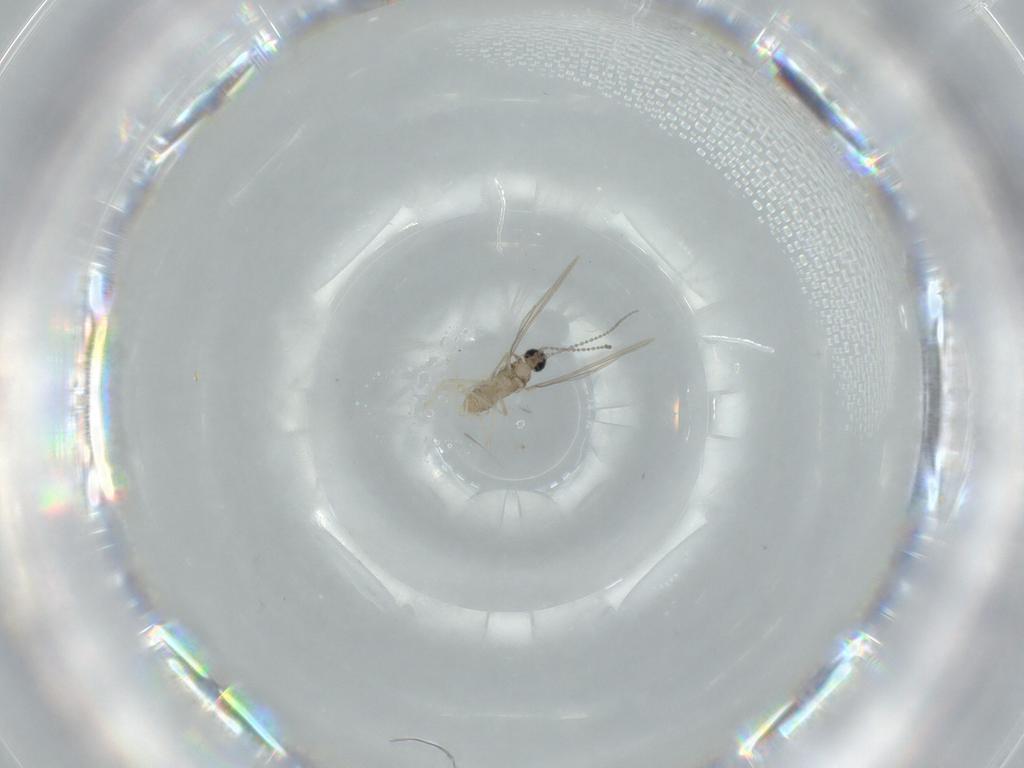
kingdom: Animalia
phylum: Arthropoda
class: Insecta
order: Diptera
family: Cecidomyiidae
